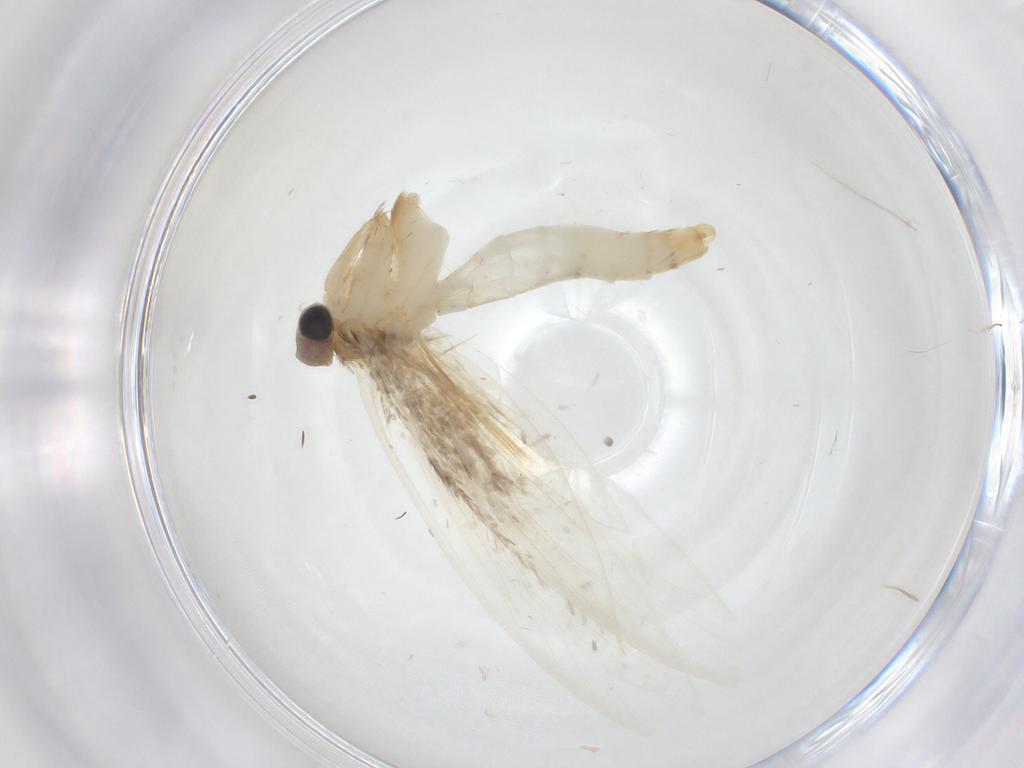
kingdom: Animalia
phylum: Arthropoda
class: Insecta
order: Lepidoptera
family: Tineidae
